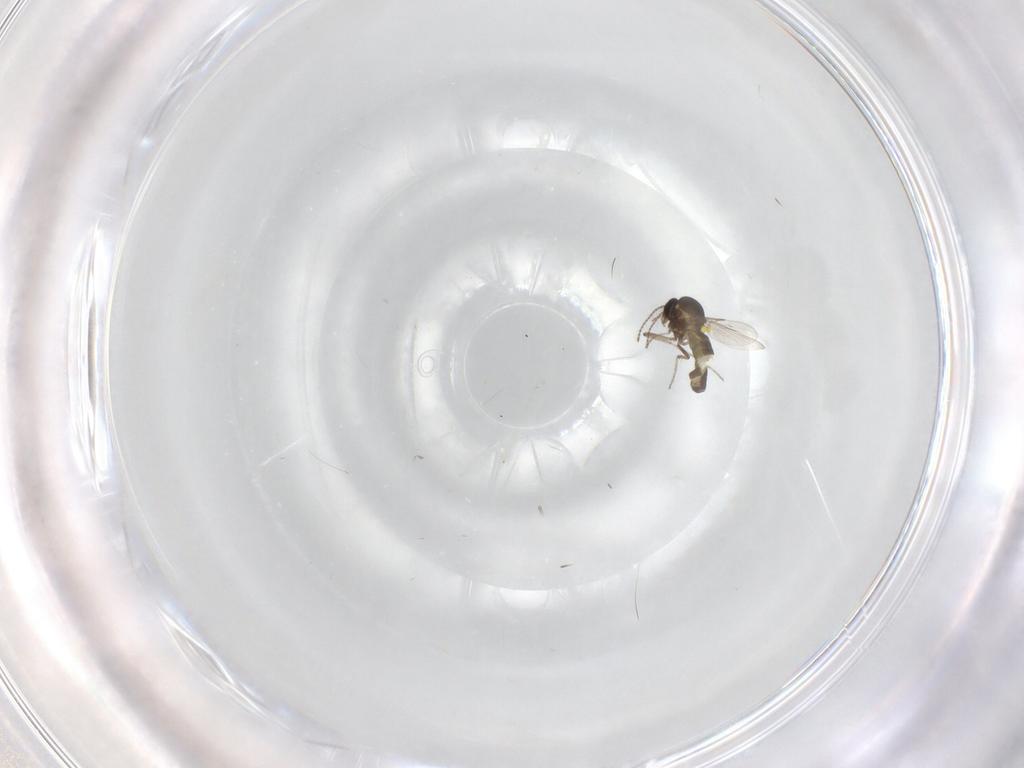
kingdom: Animalia
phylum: Arthropoda
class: Insecta
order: Diptera
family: Ceratopogonidae
